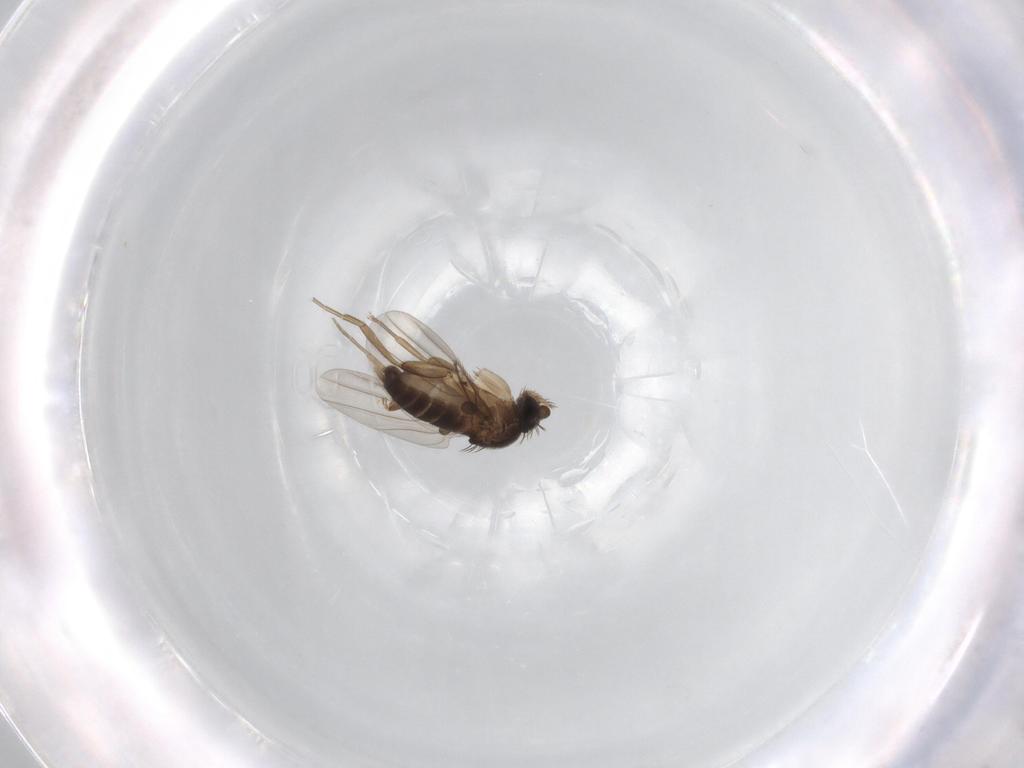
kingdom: Animalia
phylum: Arthropoda
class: Insecta
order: Diptera
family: Phoridae
